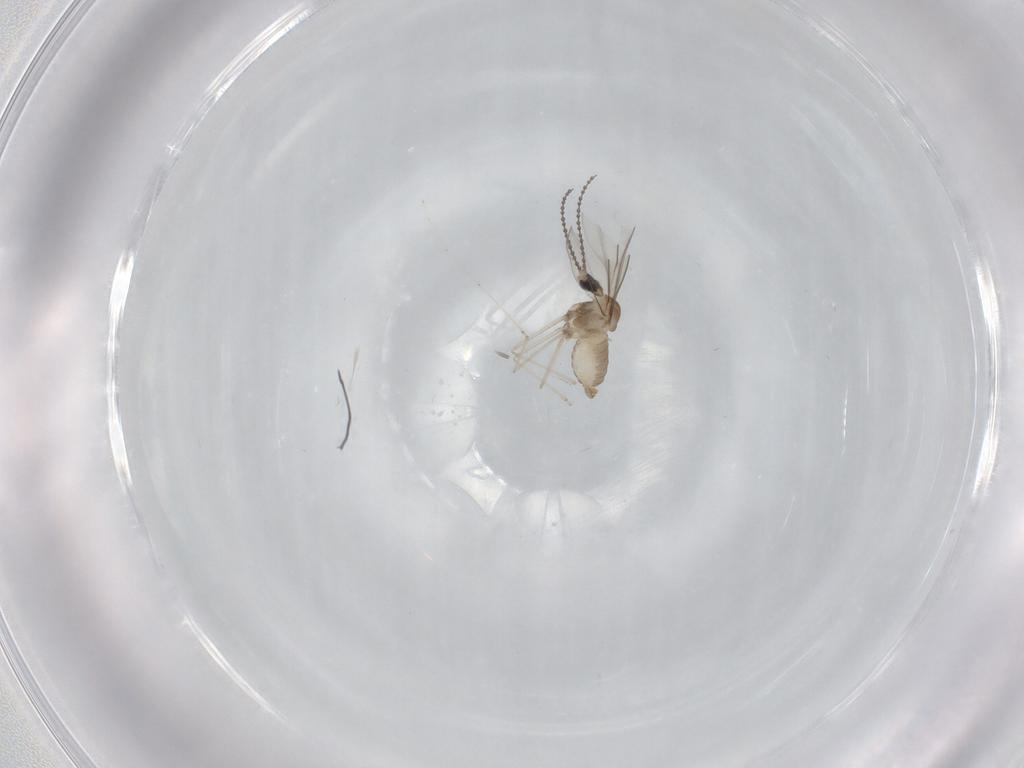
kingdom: Animalia
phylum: Arthropoda
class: Insecta
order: Diptera
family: Cecidomyiidae
